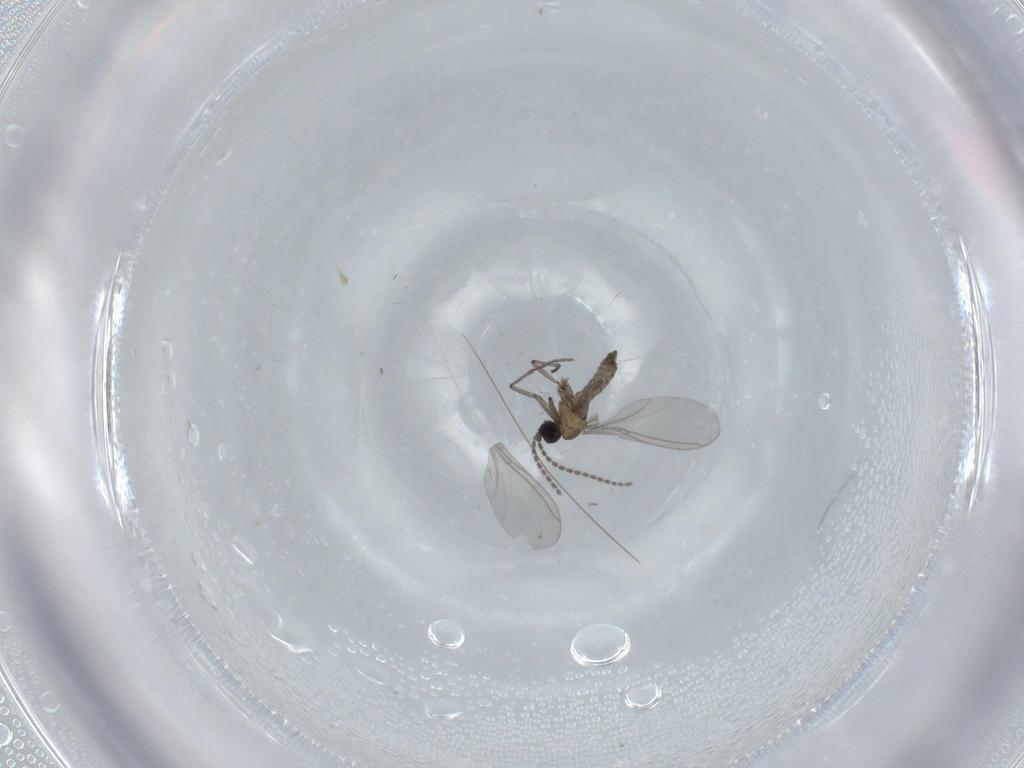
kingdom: Animalia
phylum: Arthropoda
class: Insecta
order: Diptera
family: Sciaridae
